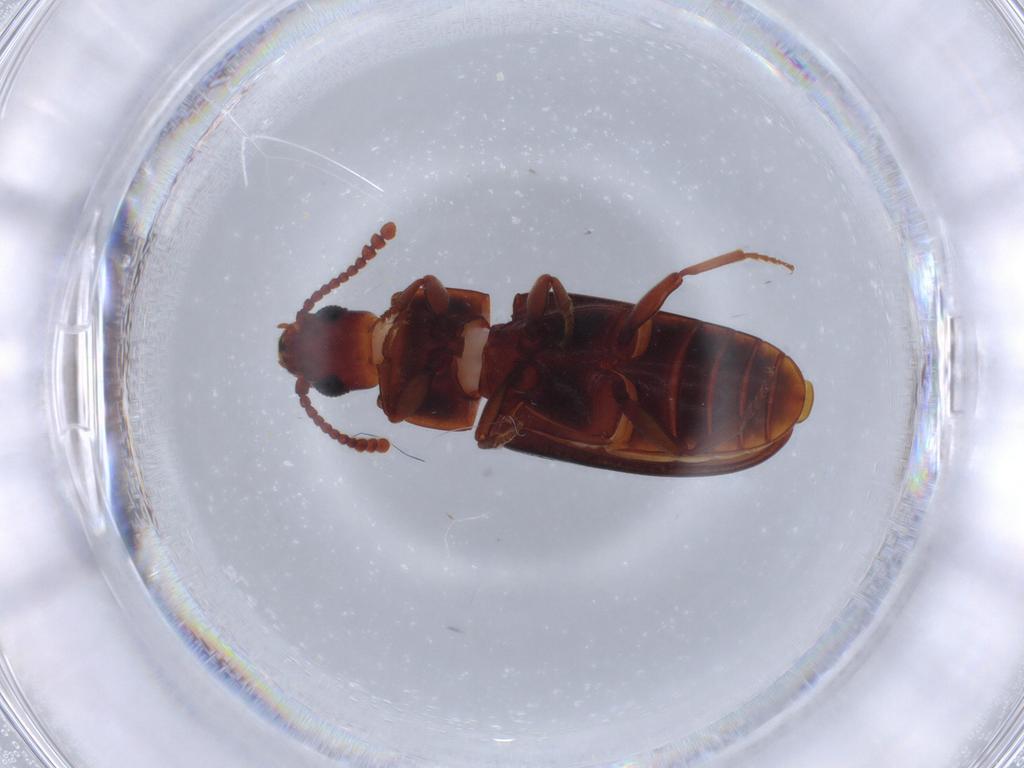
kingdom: Animalia
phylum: Arthropoda
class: Insecta
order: Coleoptera
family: Erotylidae
